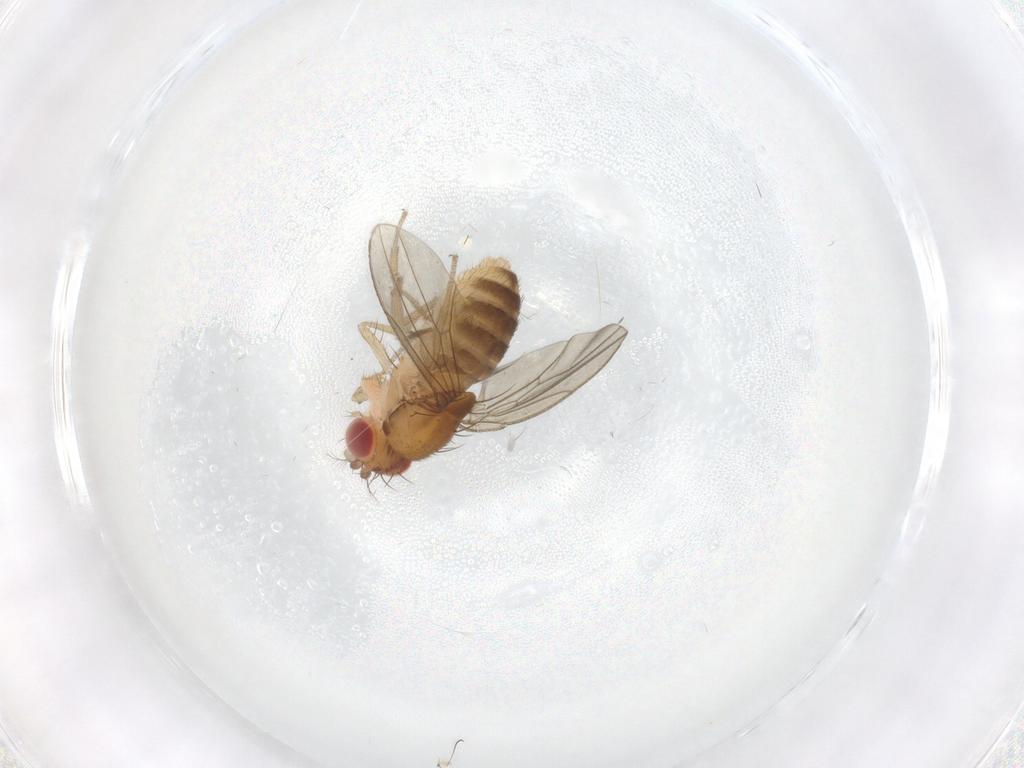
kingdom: Animalia
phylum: Arthropoda
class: Insecta
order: Diptera
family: Drosophilidae
